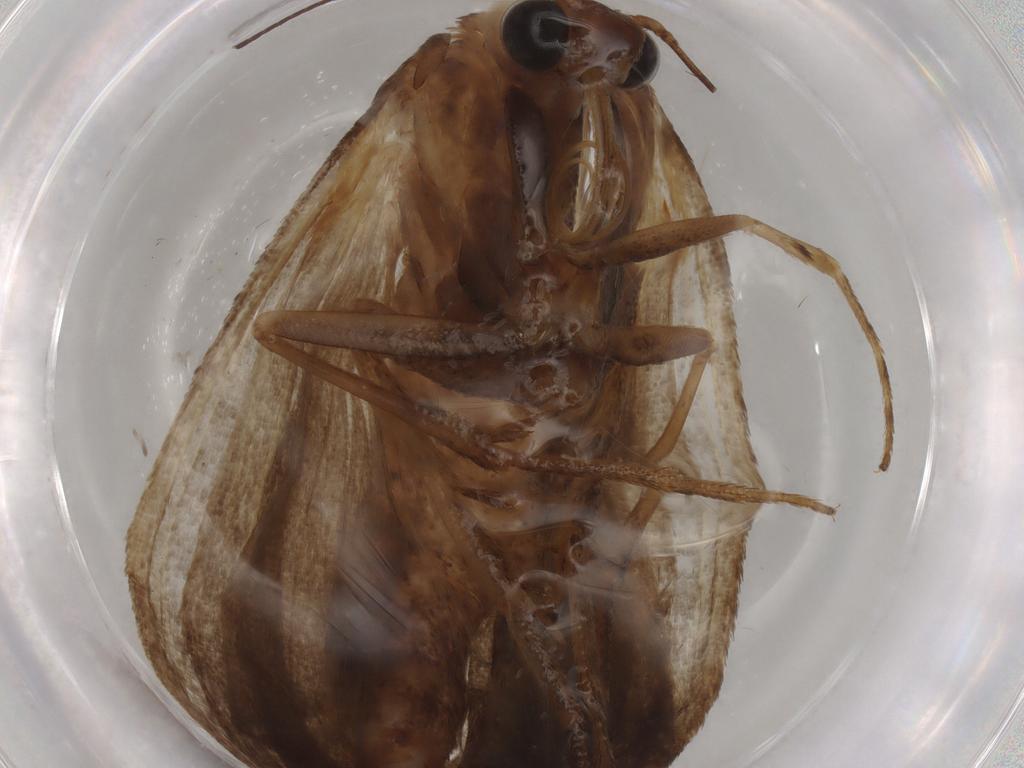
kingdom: Animalia
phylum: Arthropoda
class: Insecta
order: Lepidoptera
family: Pyralidae
